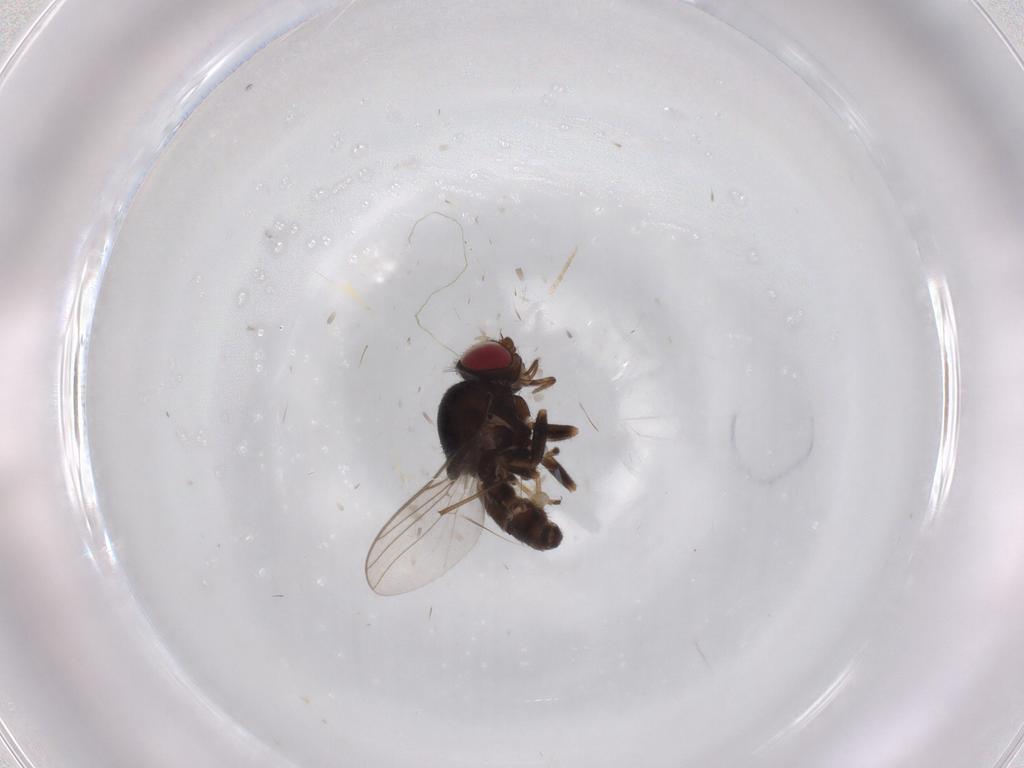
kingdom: Animalia
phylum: Arthropoda
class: Insecta
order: Diptera
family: Chloropidae
